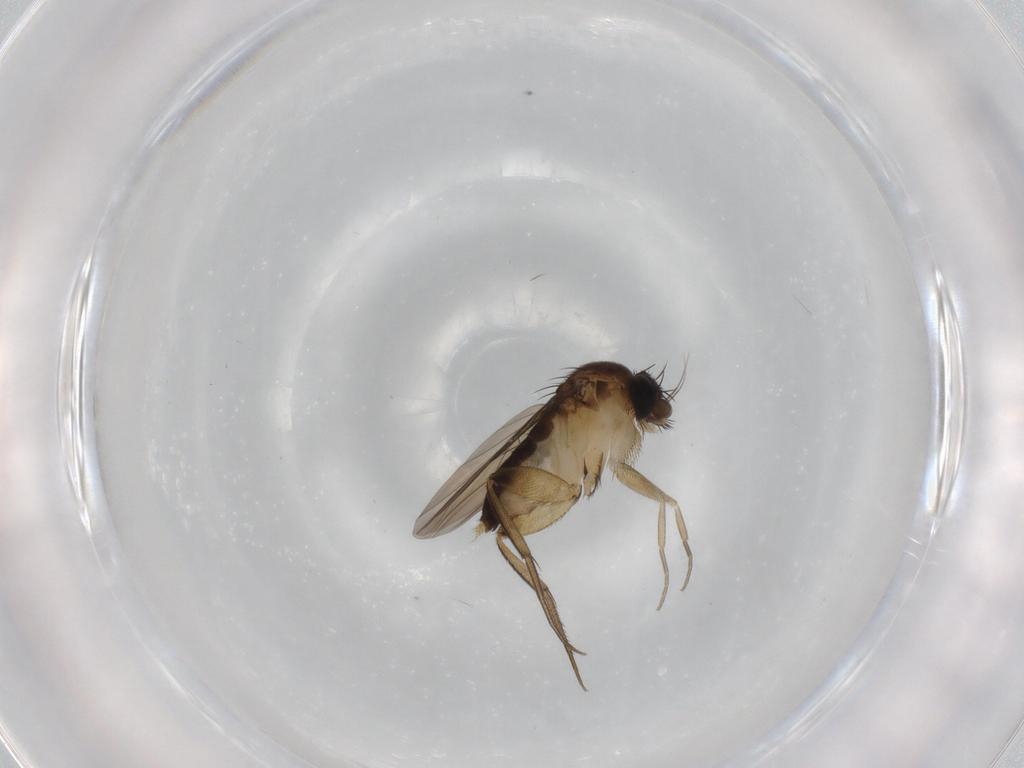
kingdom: Animalia
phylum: Arthropoda
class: Insecta
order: Diptera
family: Phoridae
